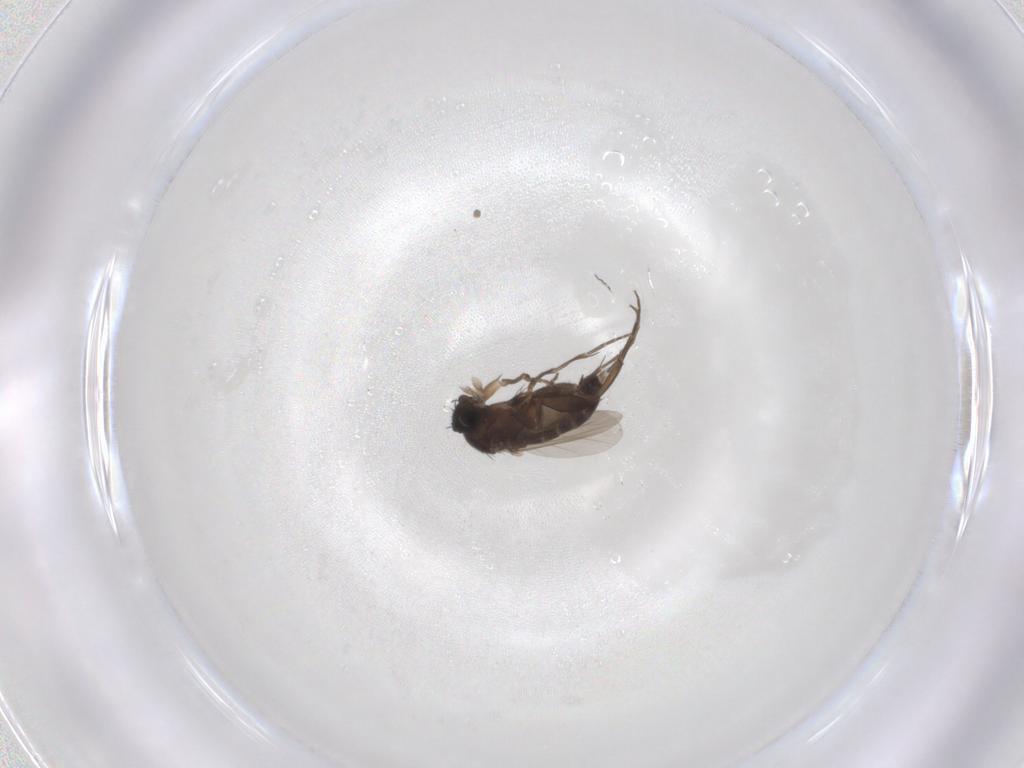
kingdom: Animalia
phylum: Arthropoda
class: Insecta
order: Diptera
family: Phoridae
